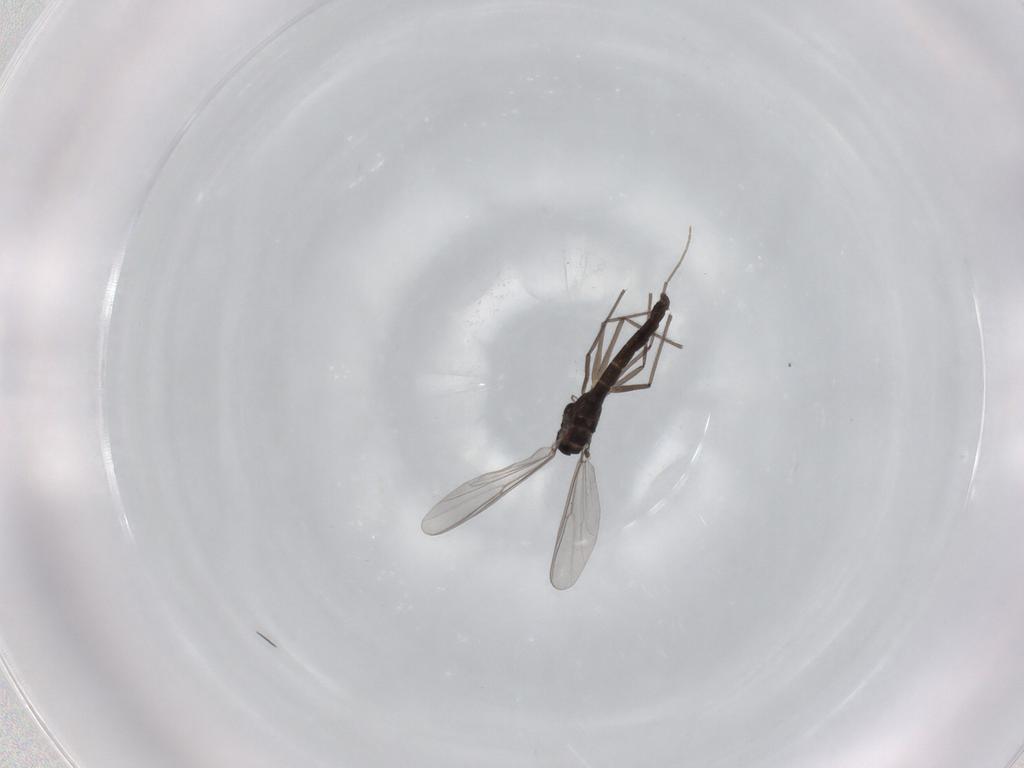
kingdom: Animalia
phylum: Arthropoda
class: Insecta
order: Diptera
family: Chironomidae
